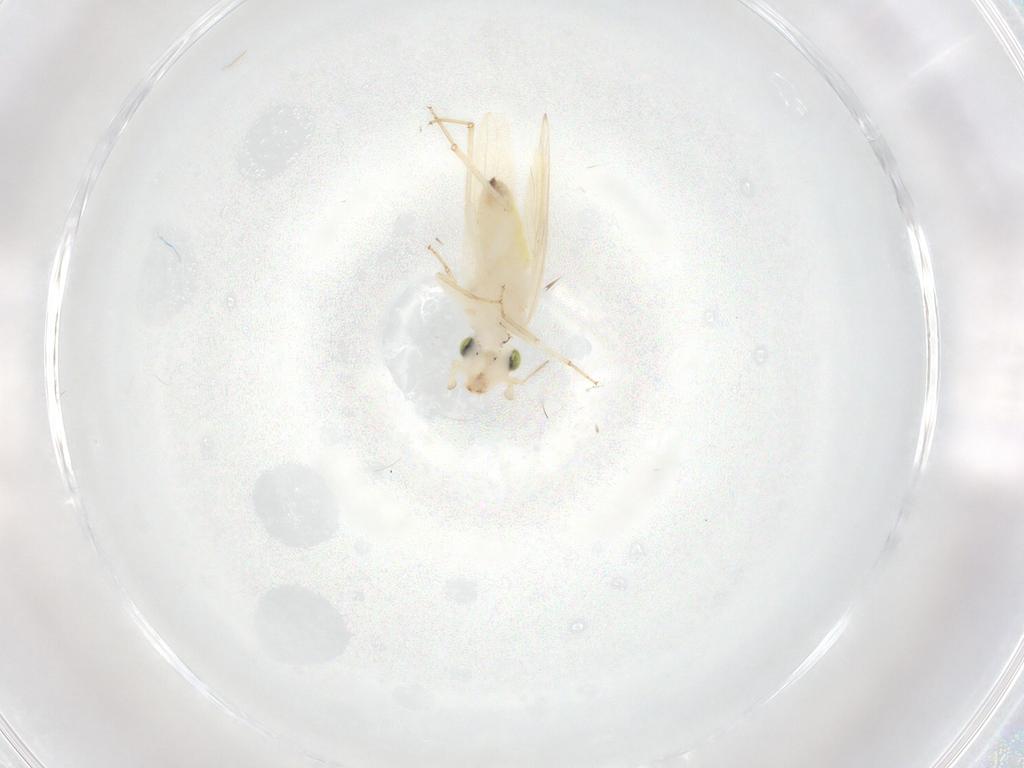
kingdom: Animalia
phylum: Arthropoda
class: Insecta
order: Psocodea
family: Lepidopsocidae
